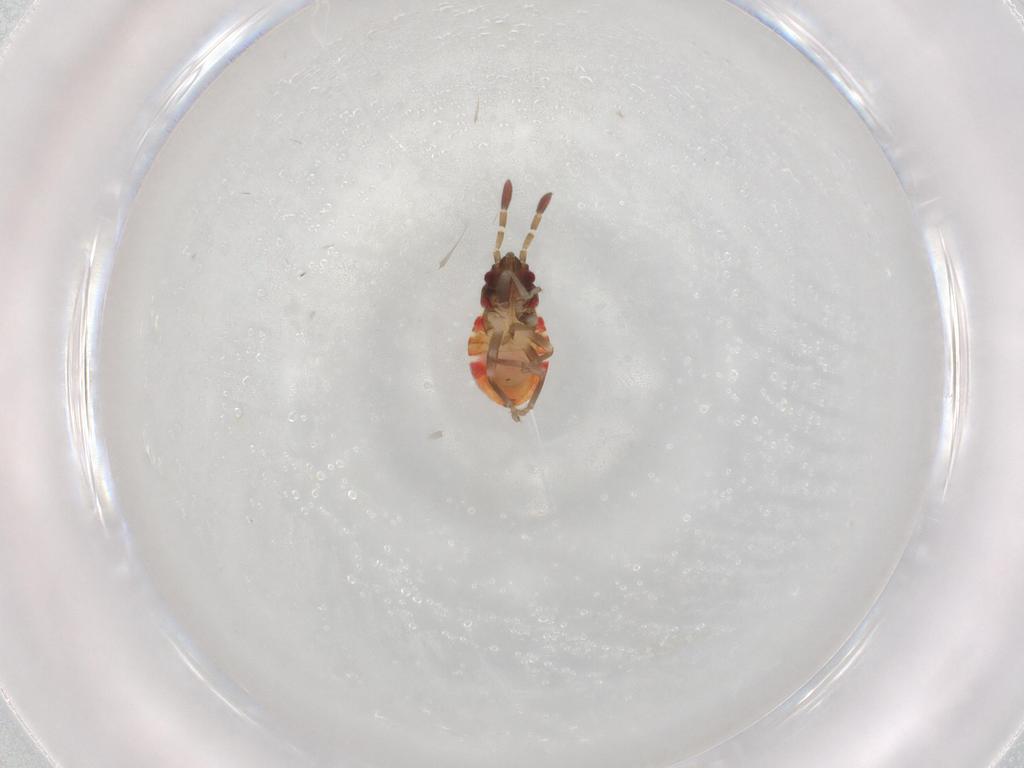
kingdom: Animalia
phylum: Arthropoda
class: Insecta
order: Hemiptera
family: Rhyparochromidae
